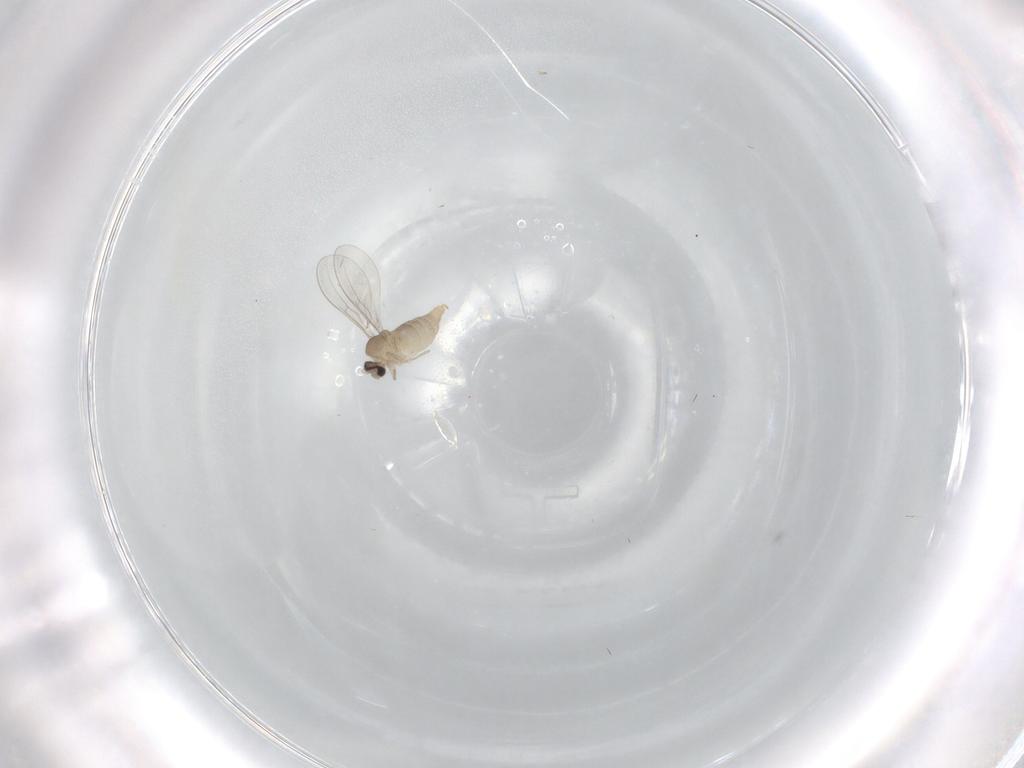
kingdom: Animalia
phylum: Arthropoda
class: Insecta
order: Diptera
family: Cecidomyiidae
